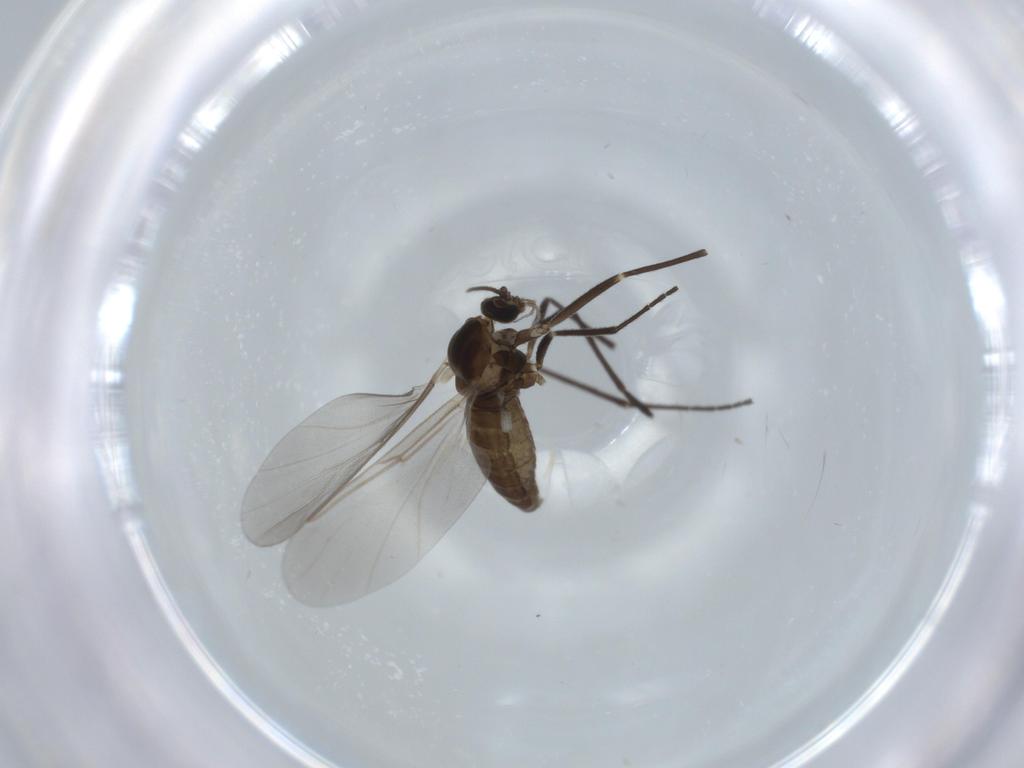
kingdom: Animalia
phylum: Arthropoda
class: Insecta
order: Diptera
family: Cecidomyiidae
